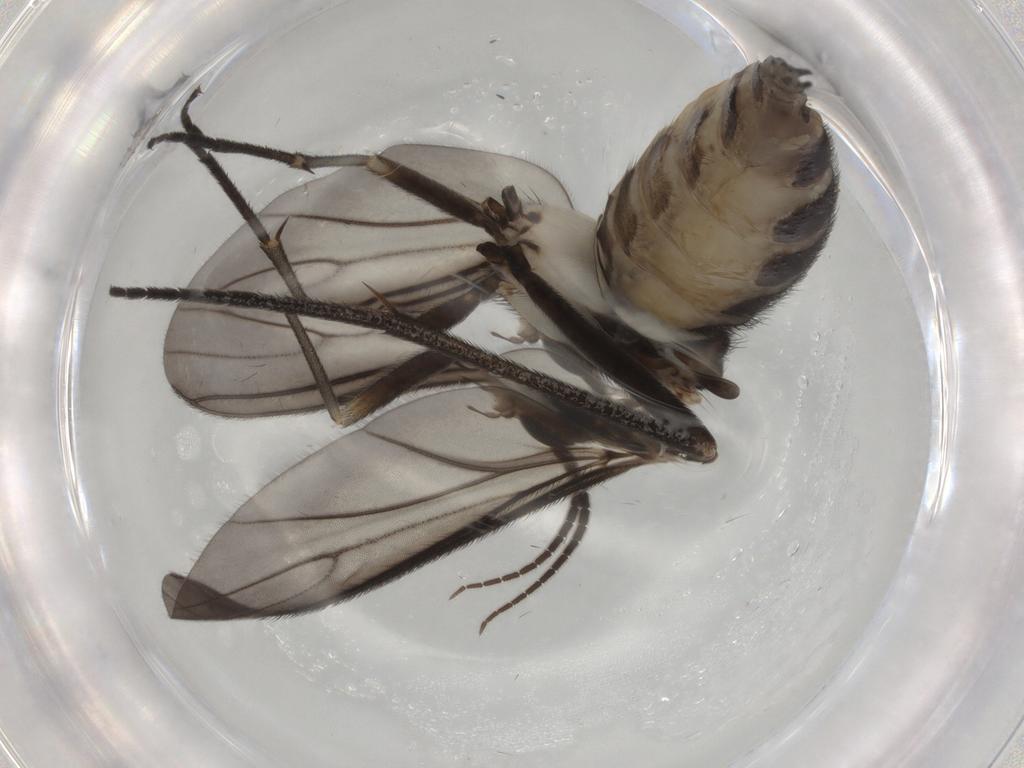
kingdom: Animalia
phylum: Arthropoda
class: Insecta
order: Diptera
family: Sciaridae
